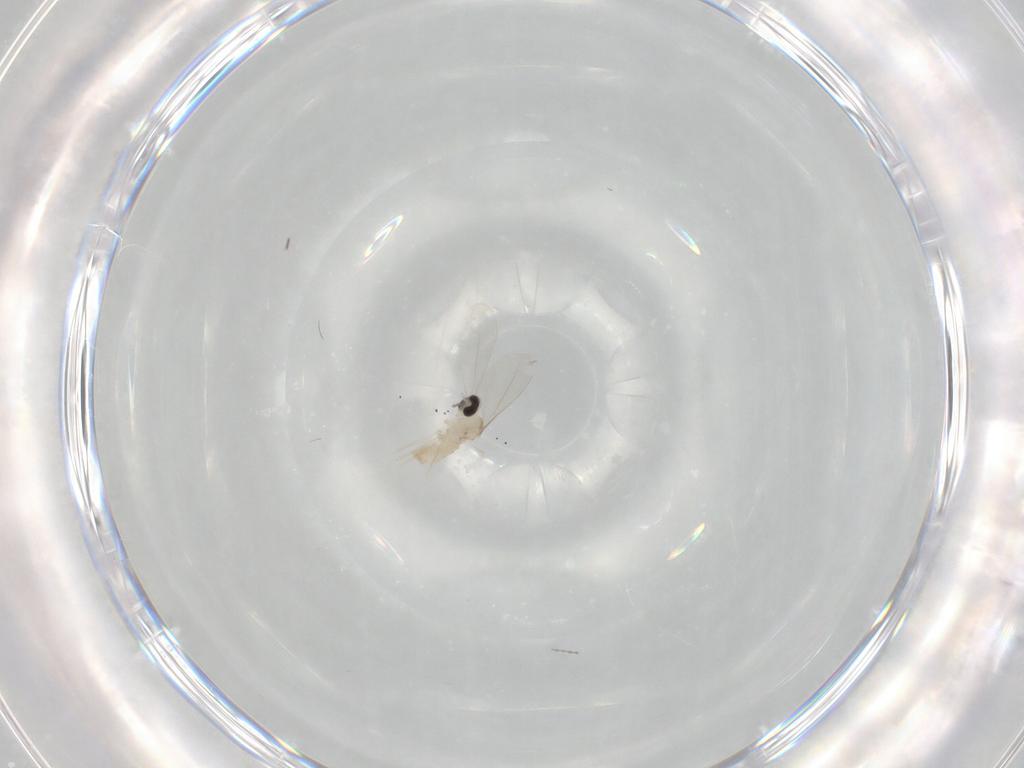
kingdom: Animalia
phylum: Arthropoda
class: Insecta
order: Diptera
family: Cecidomyiidae
